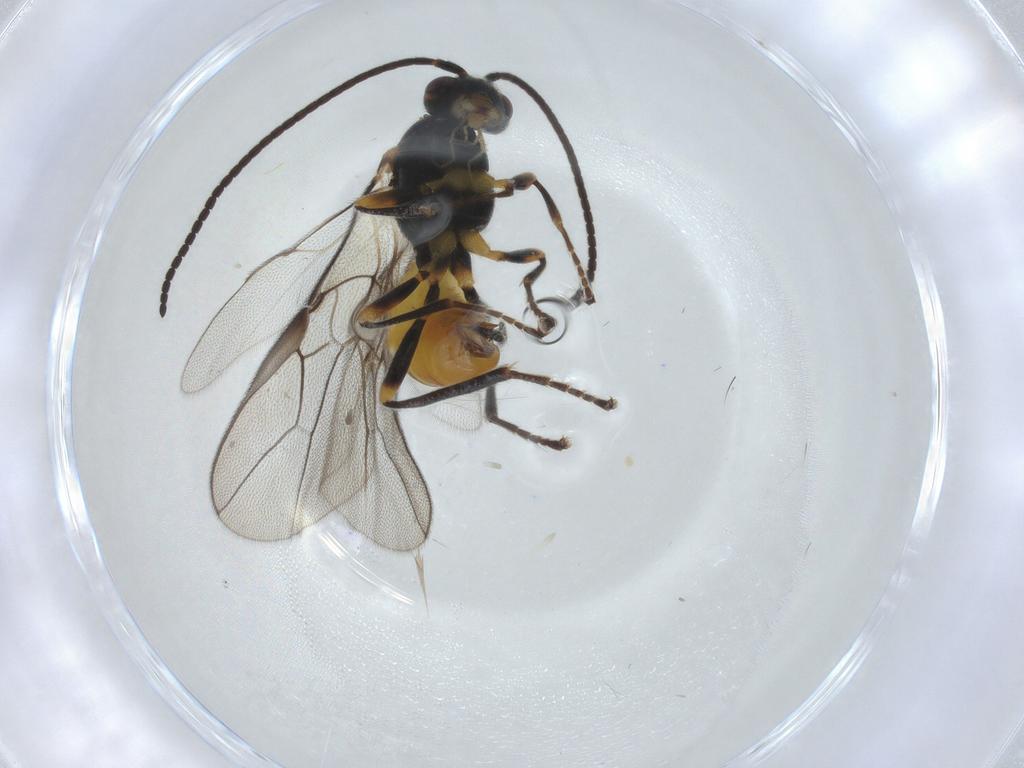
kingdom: Animalia
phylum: Arthropoda
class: Insecta
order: Hymenoptera
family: Braconidae
